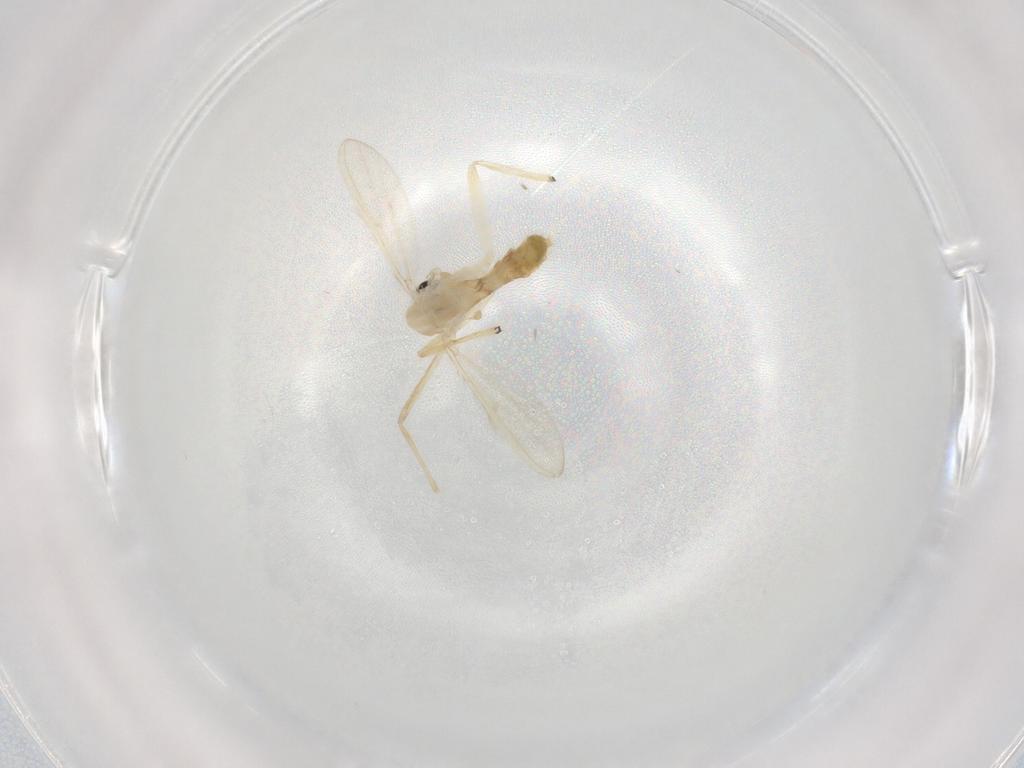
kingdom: Animalia
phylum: Arthropoda
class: Insecta
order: Diptera
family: Chironomidae
